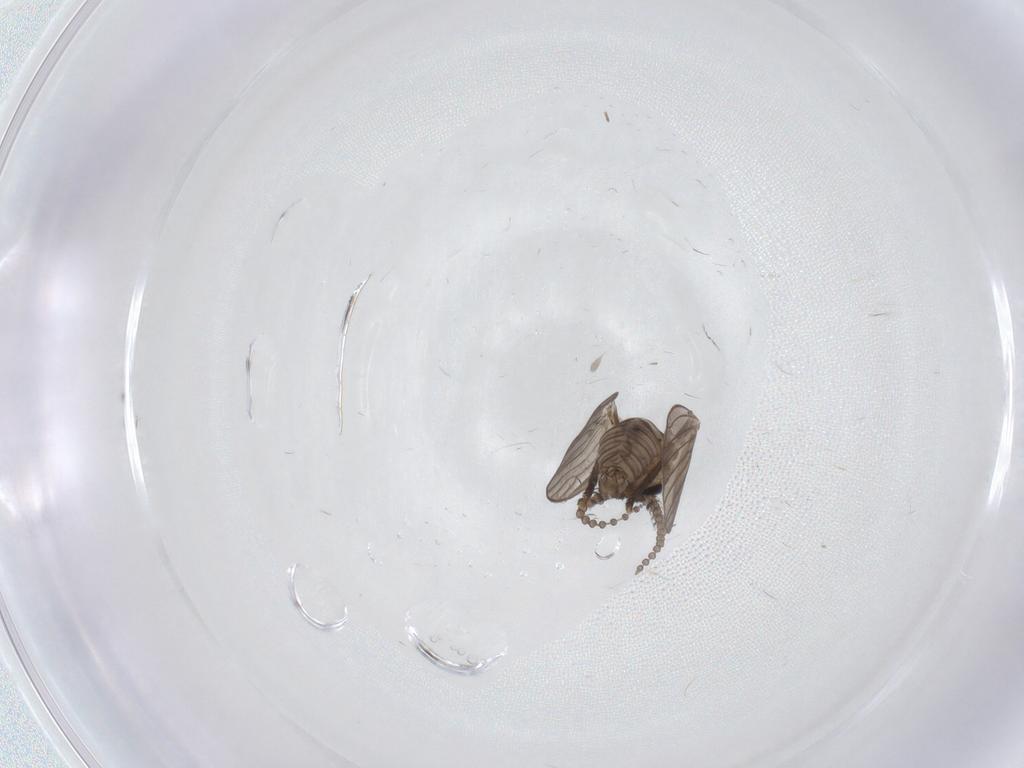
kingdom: Animalia
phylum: Arthropoda
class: Insecta
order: Diptera
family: Psychodidae
